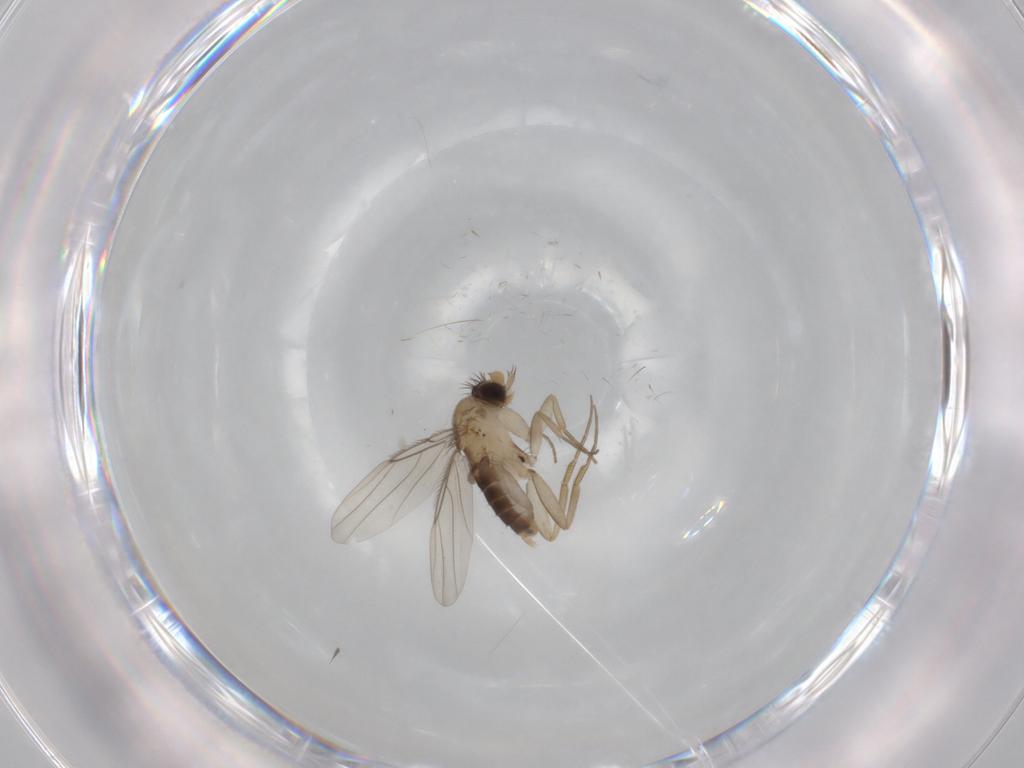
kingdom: Animalia
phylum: Arthropoda
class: Insecta
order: Diptera
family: Phoridae
